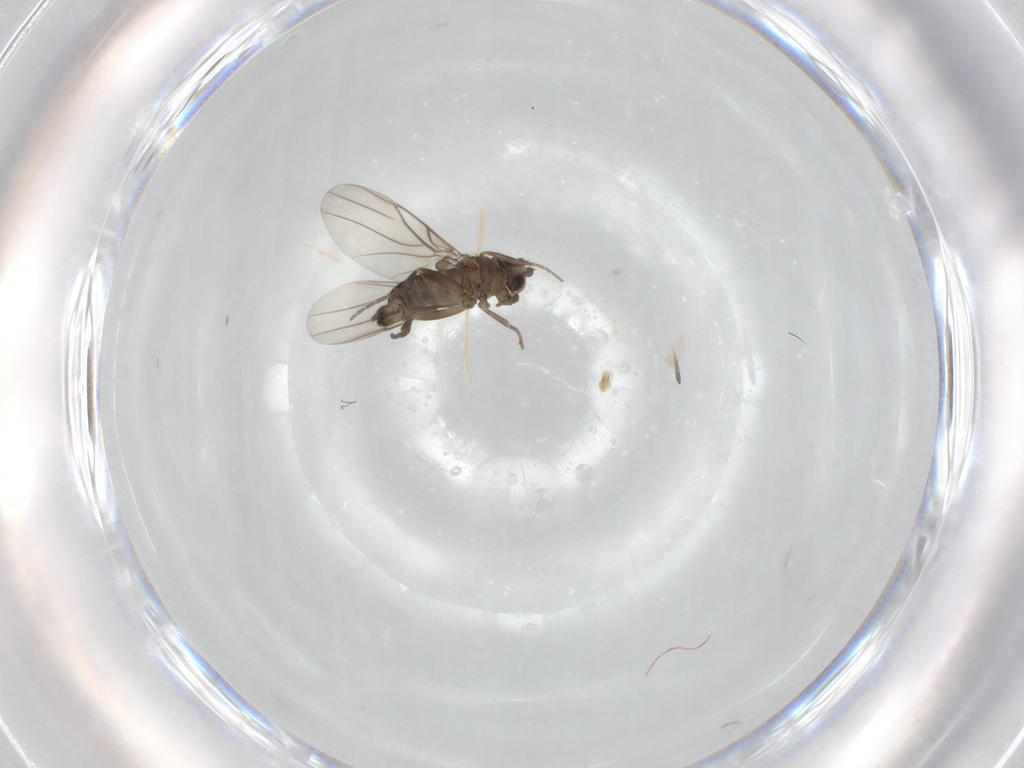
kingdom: Animalia
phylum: Arthropoda
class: Insecta
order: Diptera
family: Phoridae
